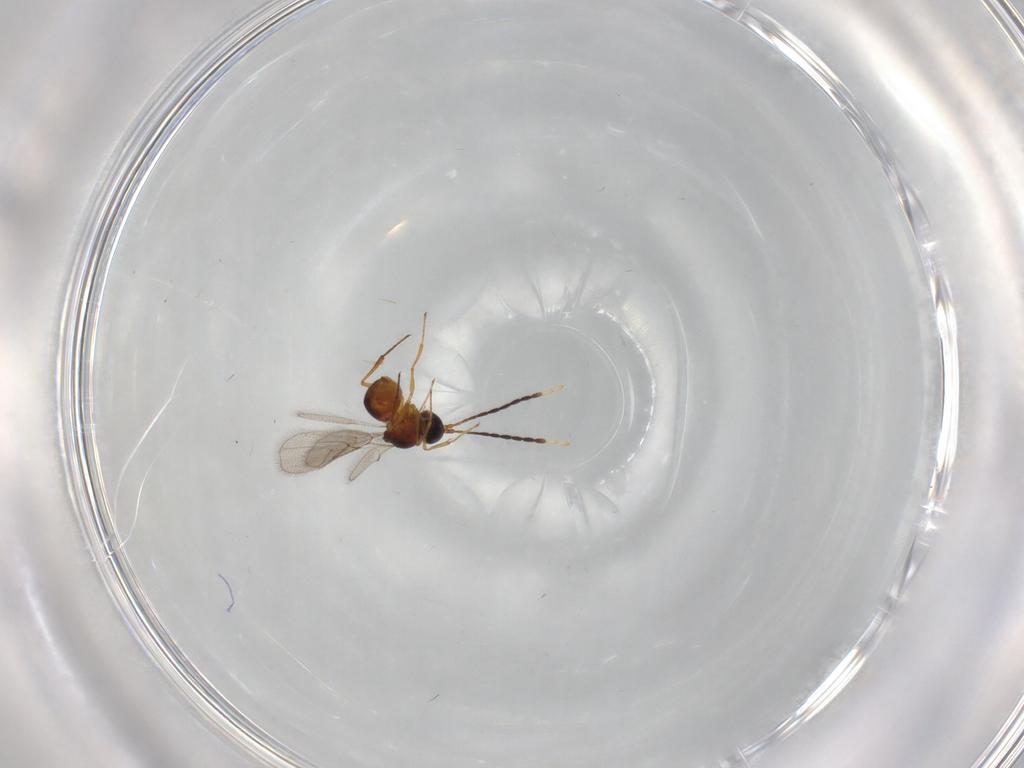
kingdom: Animalia
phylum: Arthropoda
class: Insecta
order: Hymenoptera
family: Figitidae
